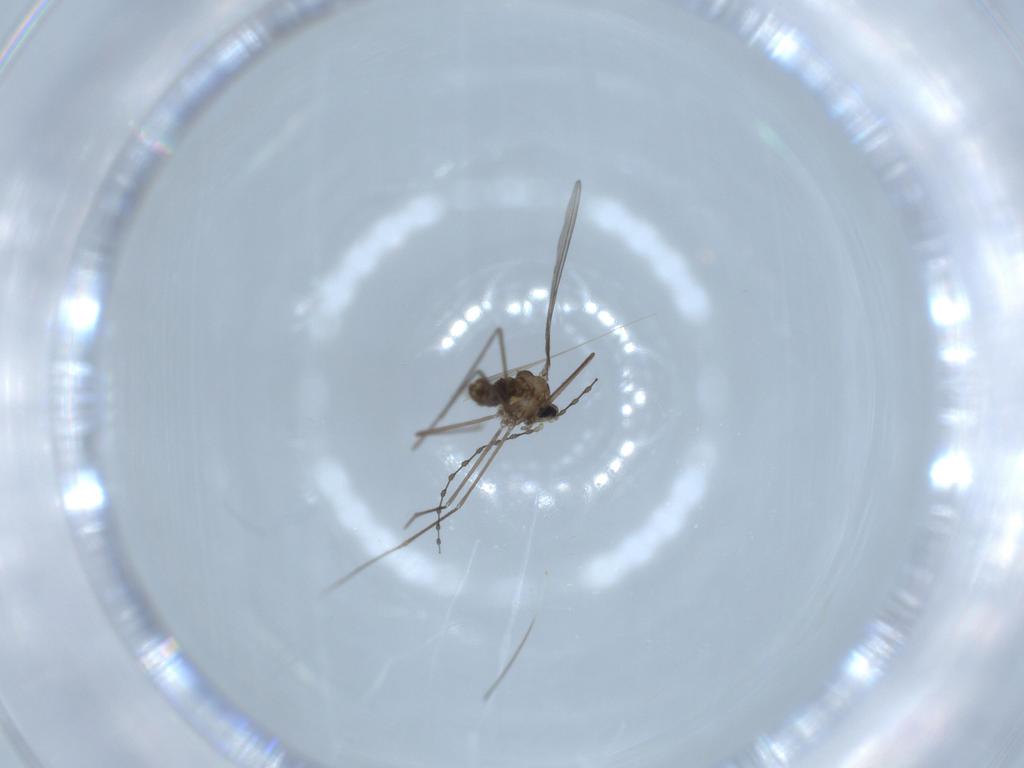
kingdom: Animalia
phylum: Arthropoda
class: Insecta
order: Diptera
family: Cecidomyiidae
